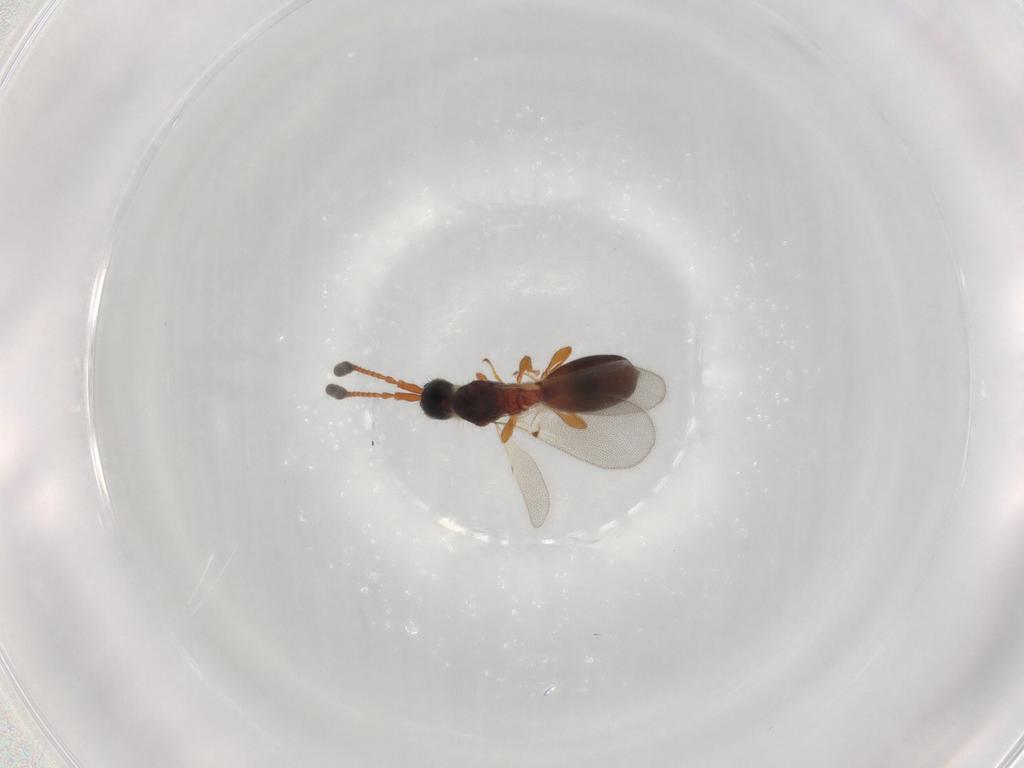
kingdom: Animalia
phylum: Arthropoda
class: Insecta
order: Hymenoptera
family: Diapriidae
